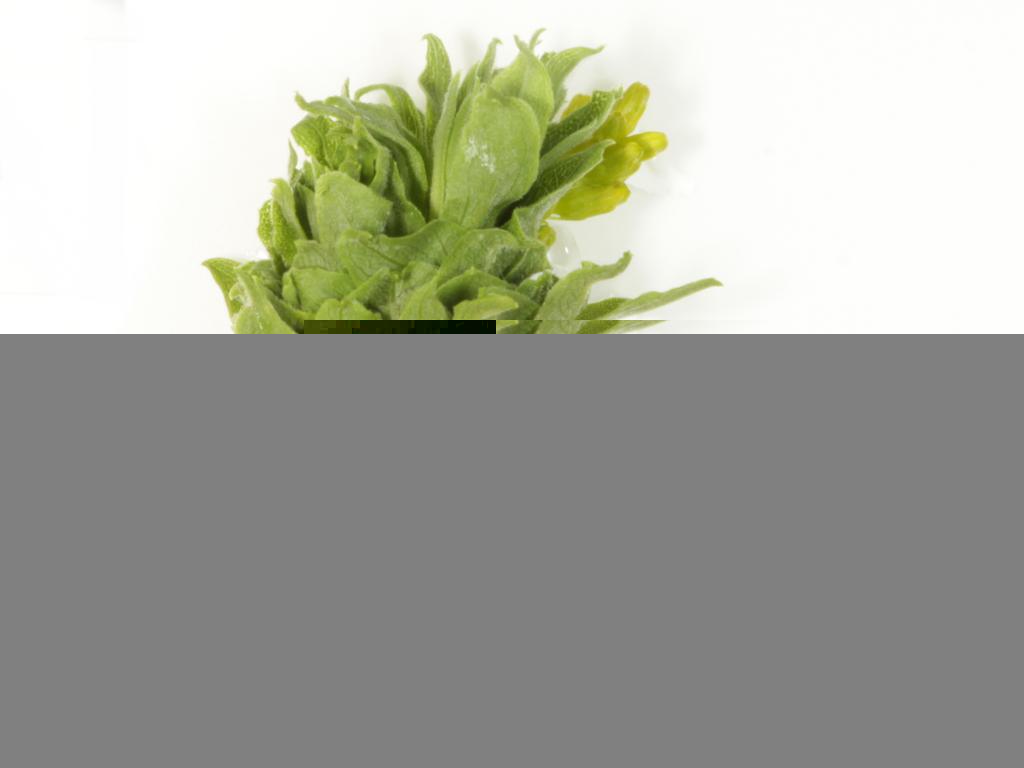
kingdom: Animalia
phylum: Arthropoda
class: Insecta
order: Hymenoptera
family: Torymidae
